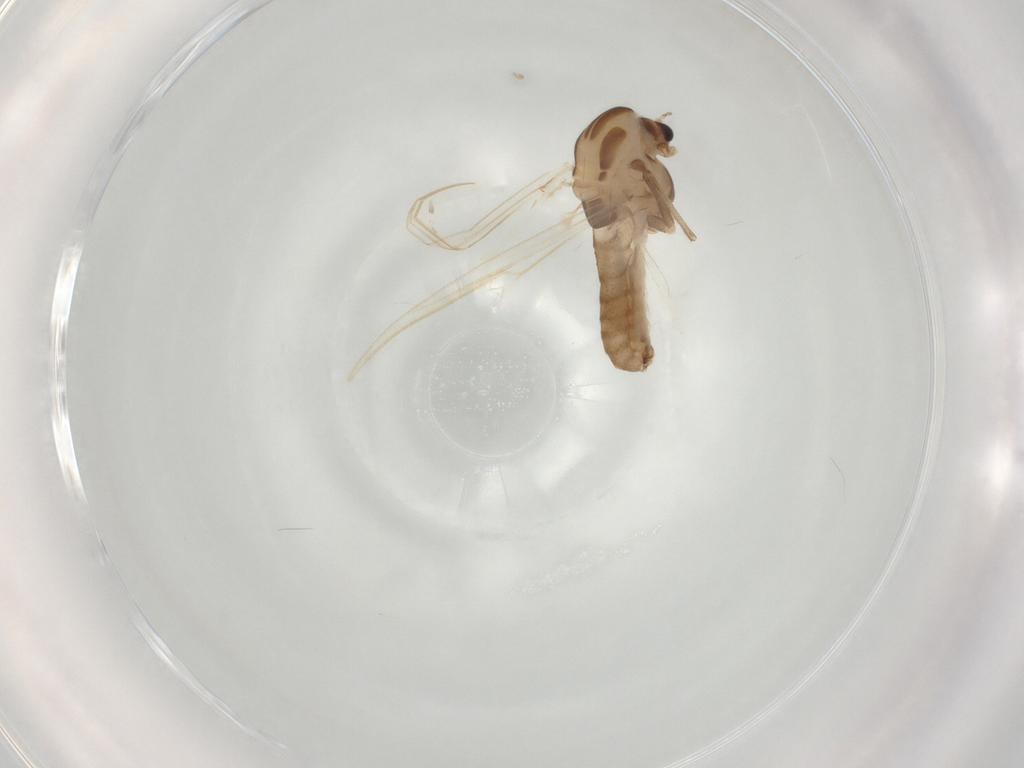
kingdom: Animalia
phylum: Arthropoda
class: Insecta
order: Diptera
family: Chironomidae
